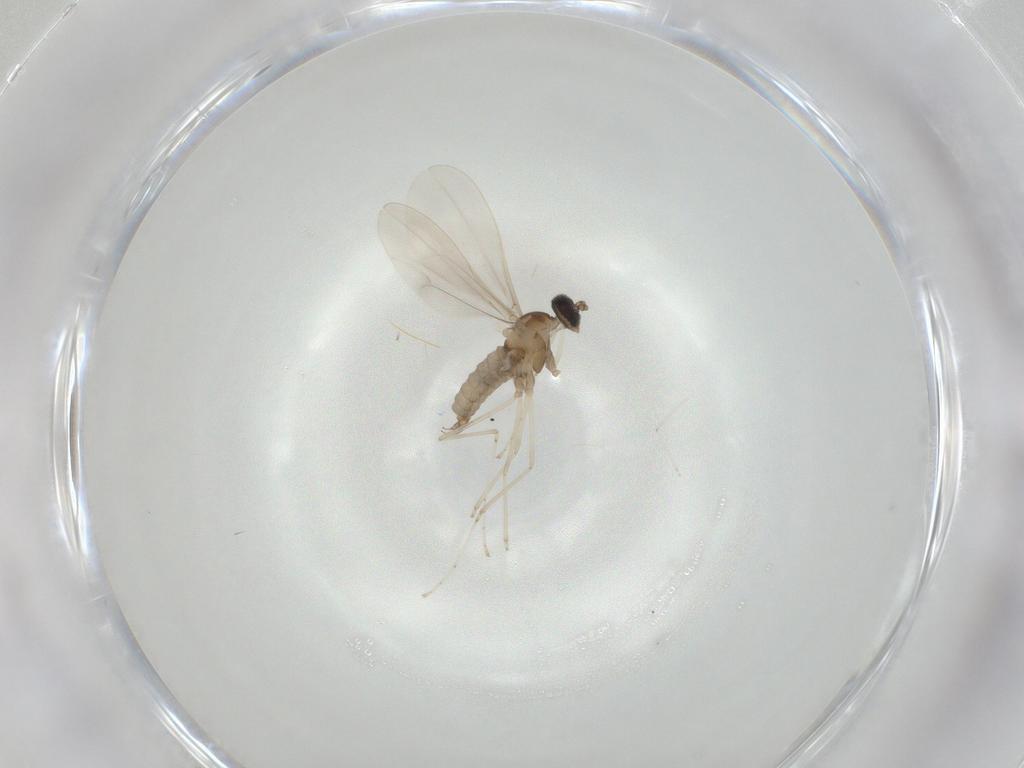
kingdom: Animalia
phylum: Arthropoda
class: Insecta
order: Diptera
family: Cecidomyiidae
